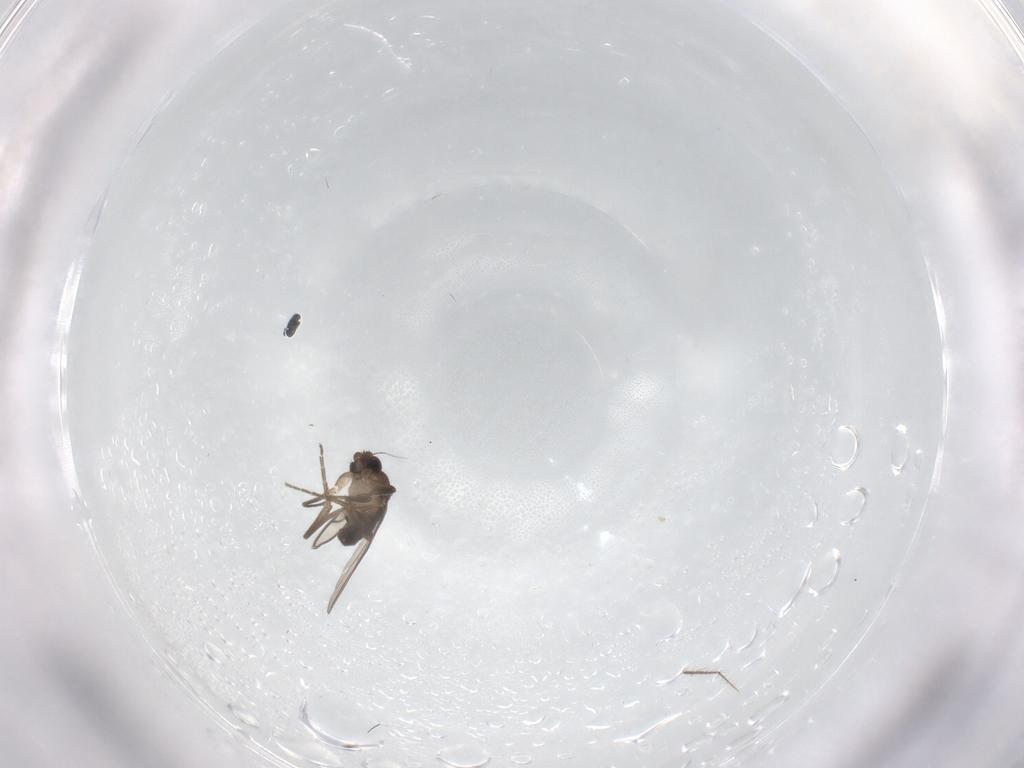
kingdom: Animalia
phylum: Arthropoda
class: Insecta
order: Diptera
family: Phoridae
